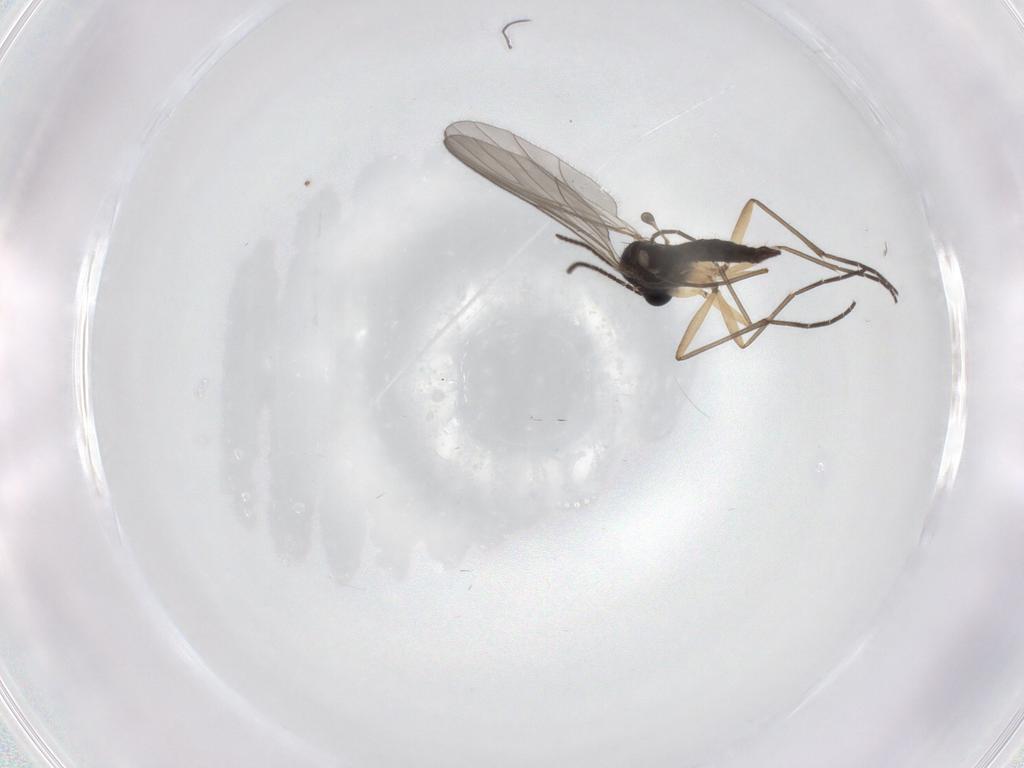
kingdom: Animalia
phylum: Arthropoda
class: Insecta
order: Diptera
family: Sciaridae
